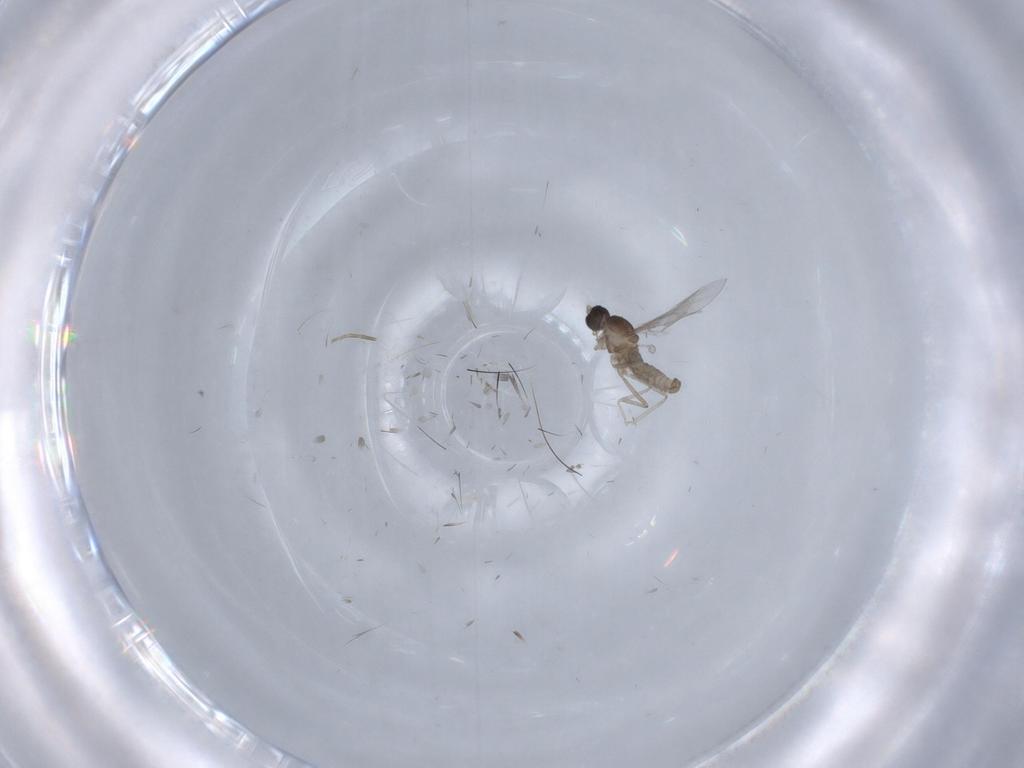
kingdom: Animalia
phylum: Arthropoda
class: Insecta
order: Diptera
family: Cecidomyiidae
